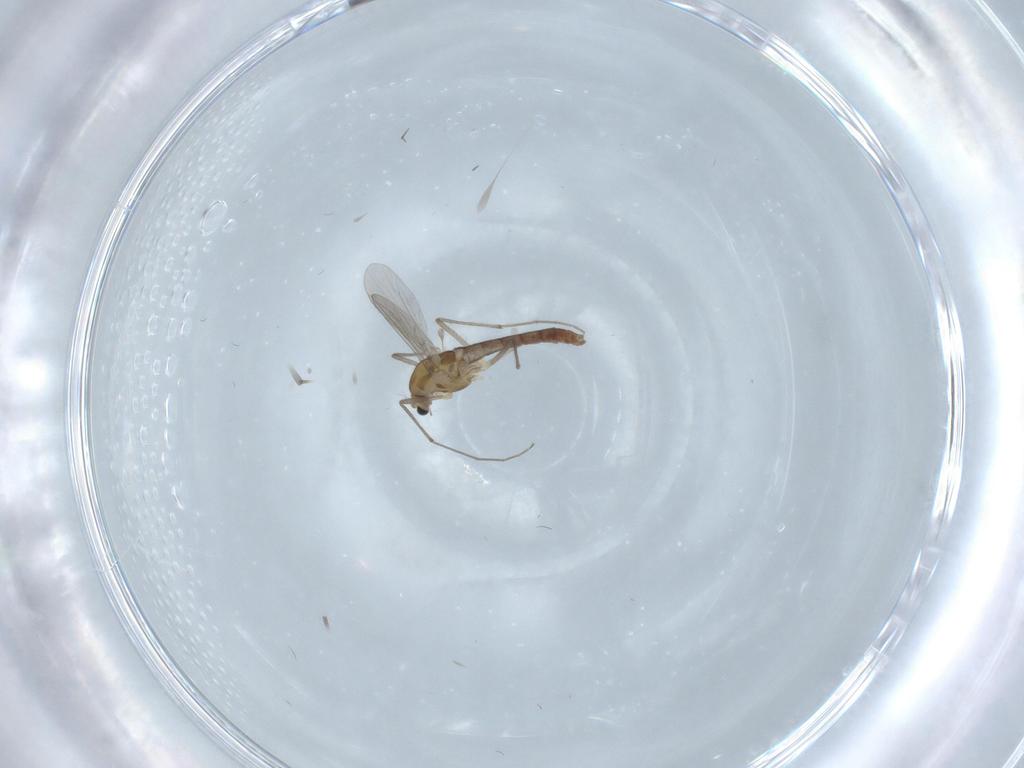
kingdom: Animalia
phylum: Arthropoda
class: Insecta
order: Diptera
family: Chironomidae
